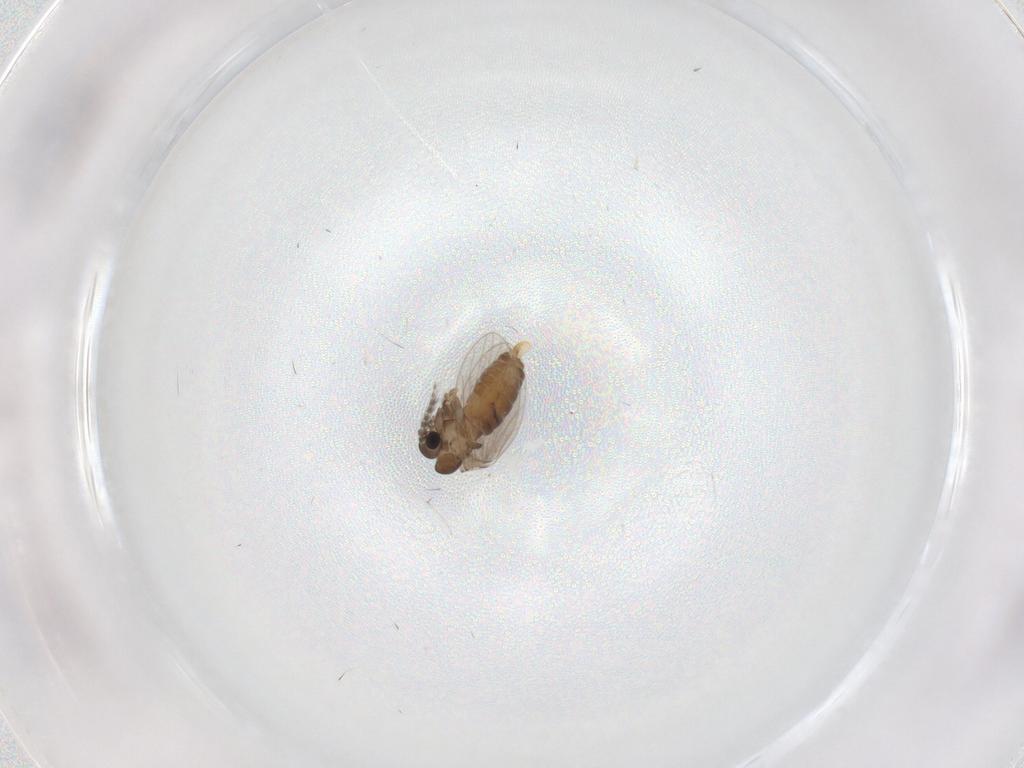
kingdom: Animalia
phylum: Arthropoda
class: Insecta
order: Diptera
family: Cecidomyiidae
